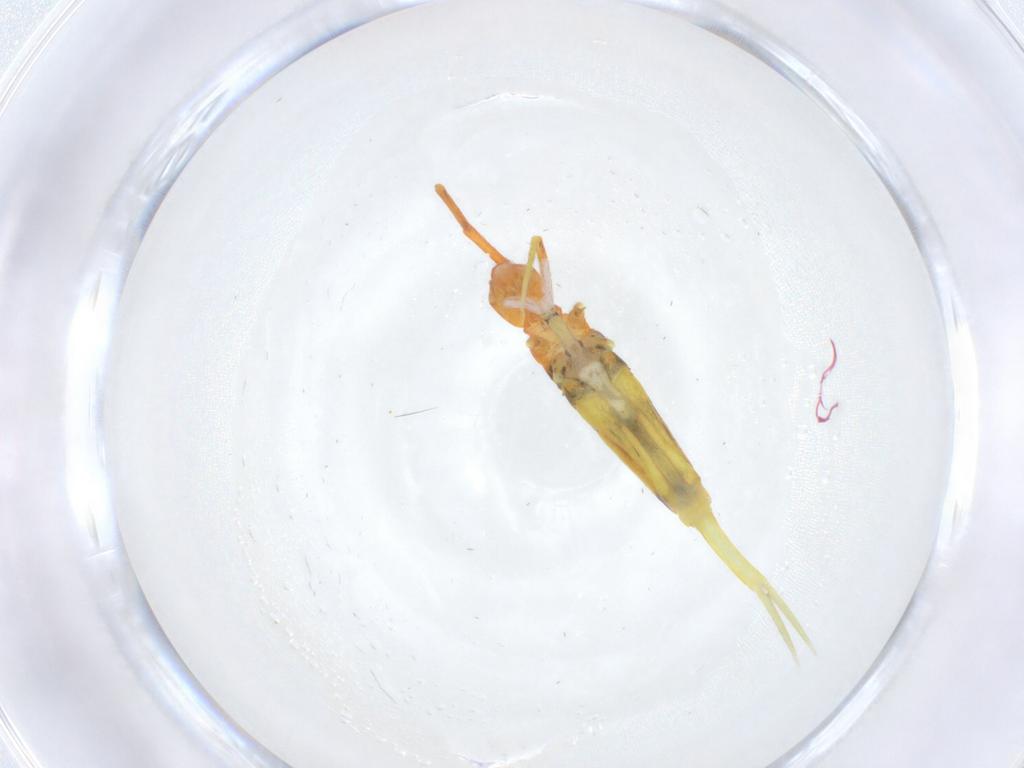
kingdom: Animalia
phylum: Arthropoda
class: Collembola
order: Entomobryomorpha
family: Entomobryidae
